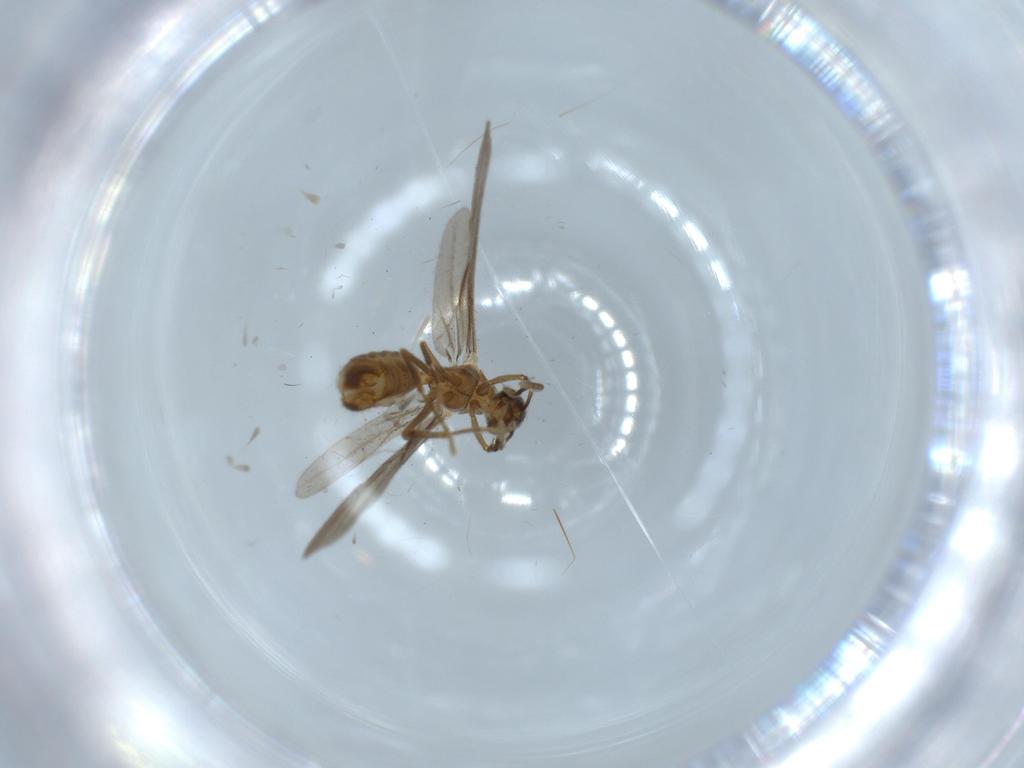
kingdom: Animalia
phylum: Arthropoda
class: Insecta
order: Hymenoptera
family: Formicidae
